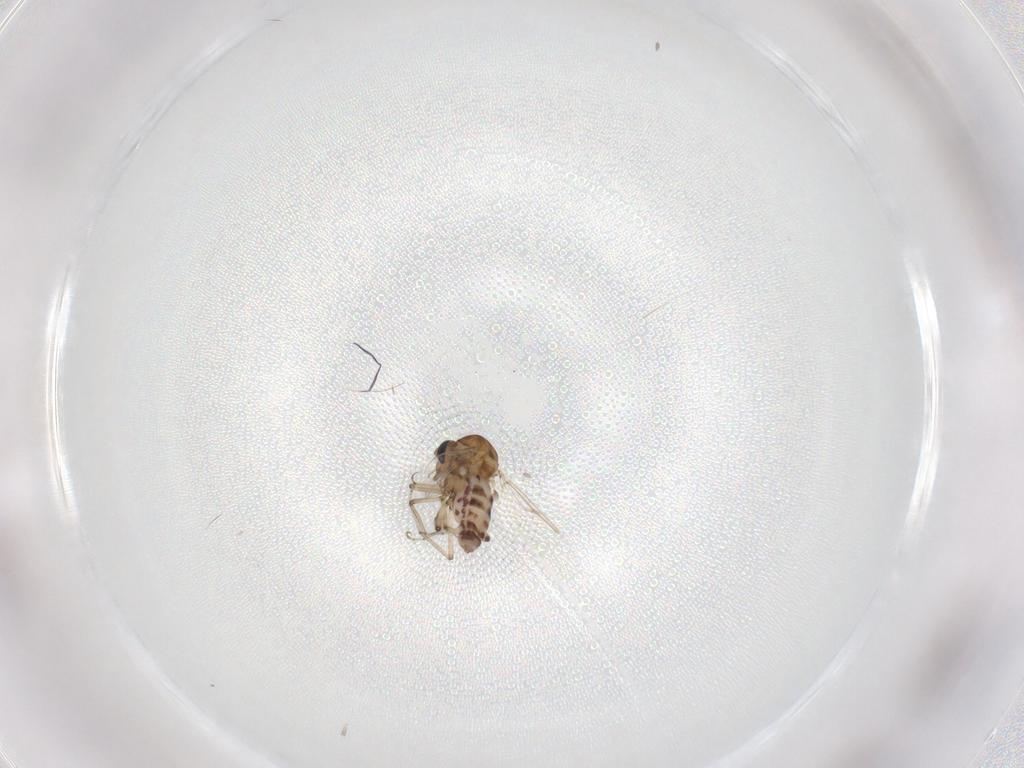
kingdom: Animalia
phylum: Arthropoda
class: Insecta
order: Diptera
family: Ceratopogonidae
